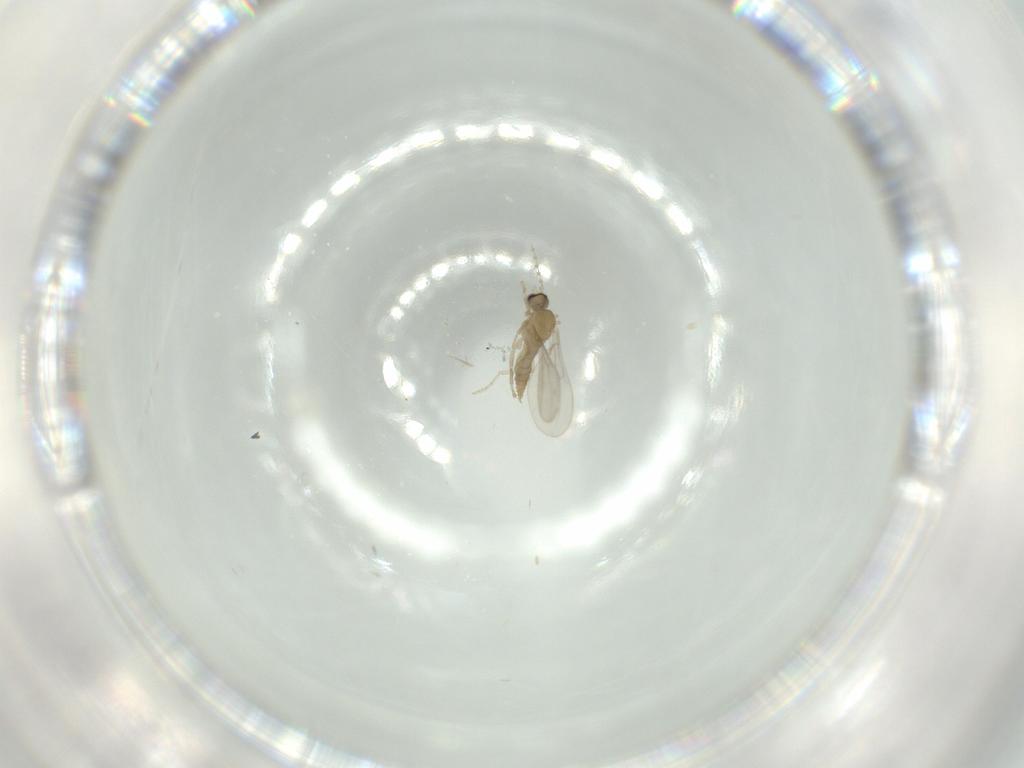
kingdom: Animalia
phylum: Arthropoda
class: Insecta
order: Diptera
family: Cecidomyiidae
